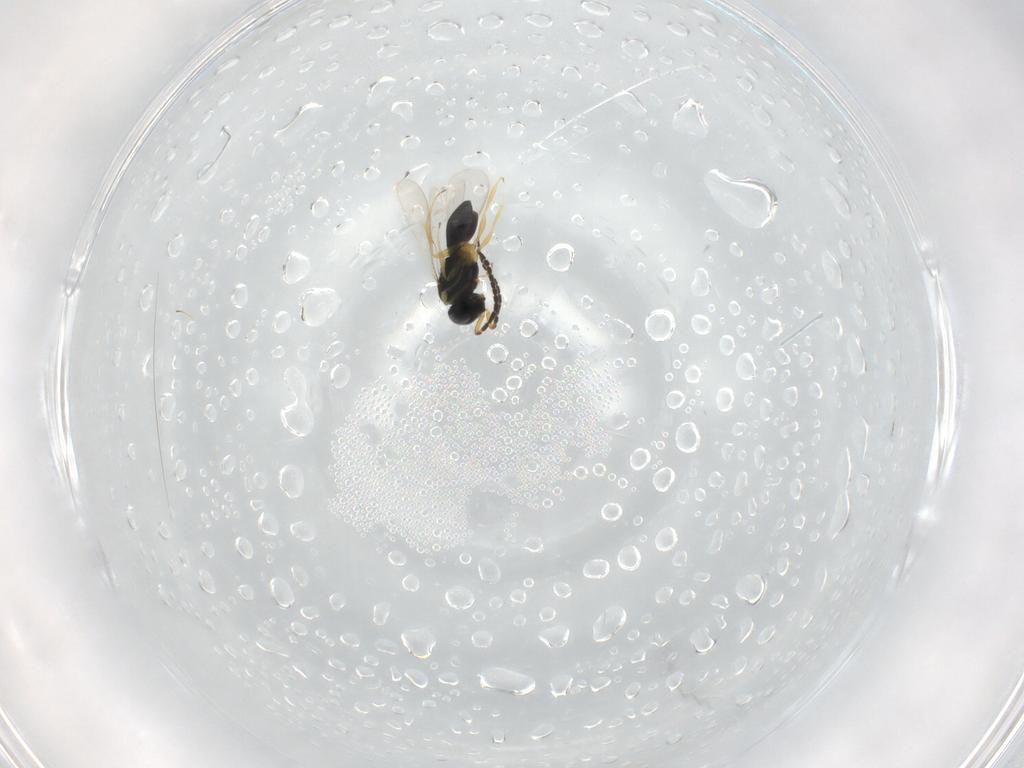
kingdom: Animalia
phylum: Arthropoda
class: Insecta
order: Hymenoptera
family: Scelionidae
